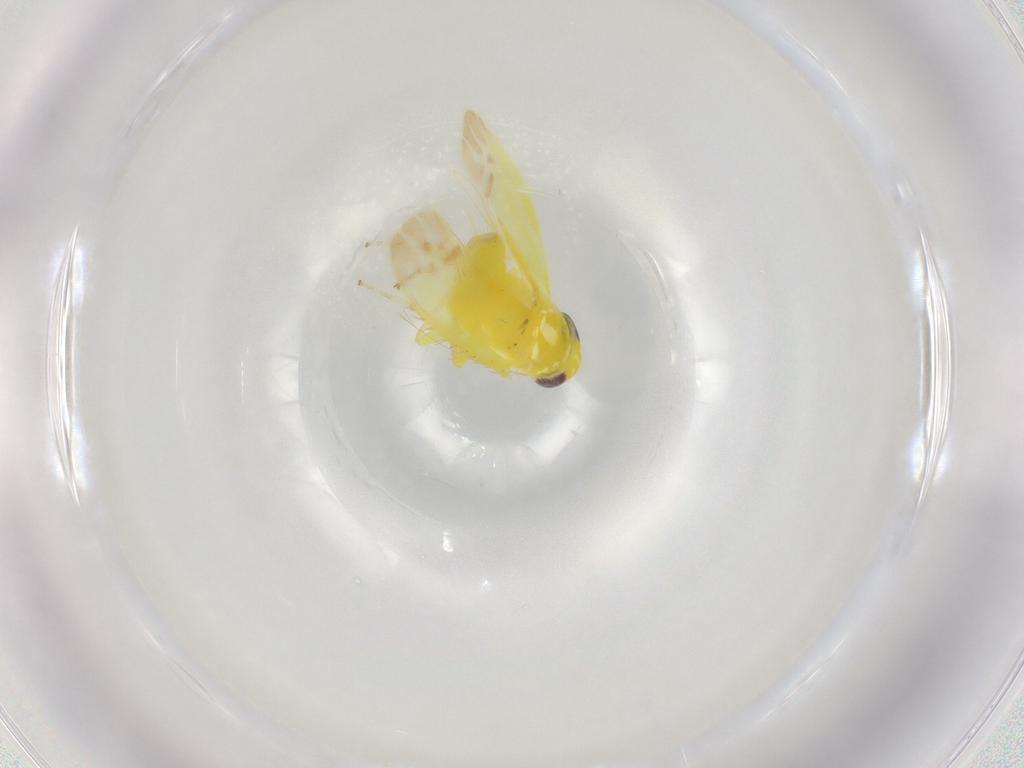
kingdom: Animalia
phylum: Arthropoda
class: Insecta
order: Hemiptera
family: Cicadellidae
